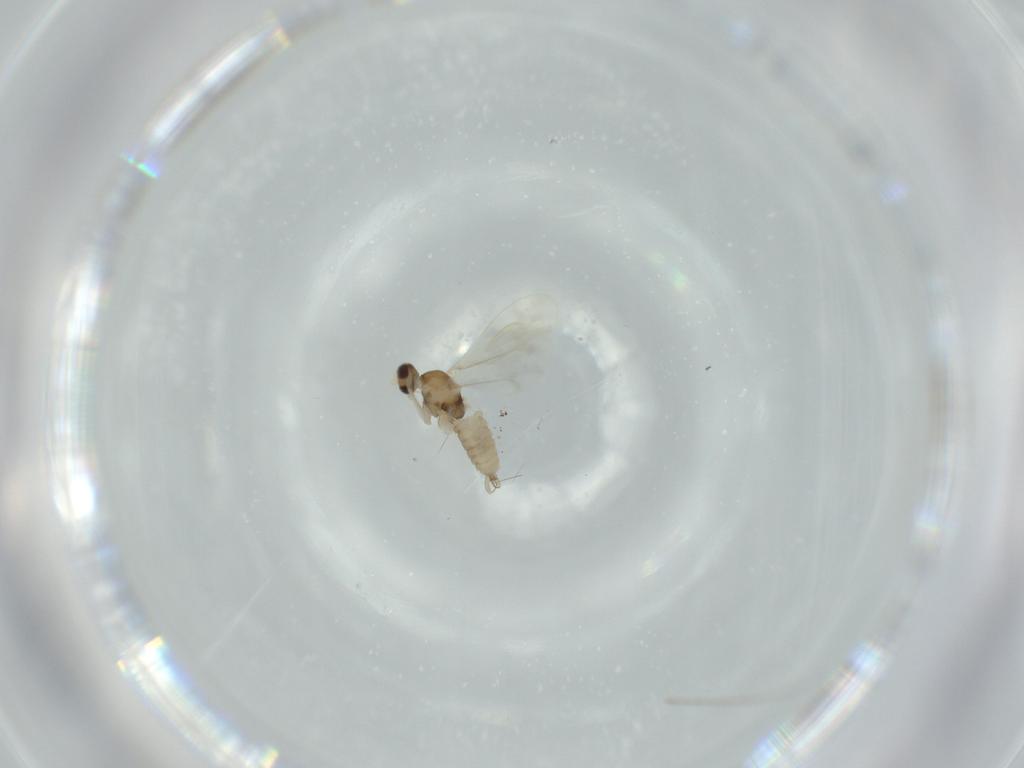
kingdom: Animalia
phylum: Arthropoda
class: Insecta
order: Diptera
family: Cecidomyiidae
